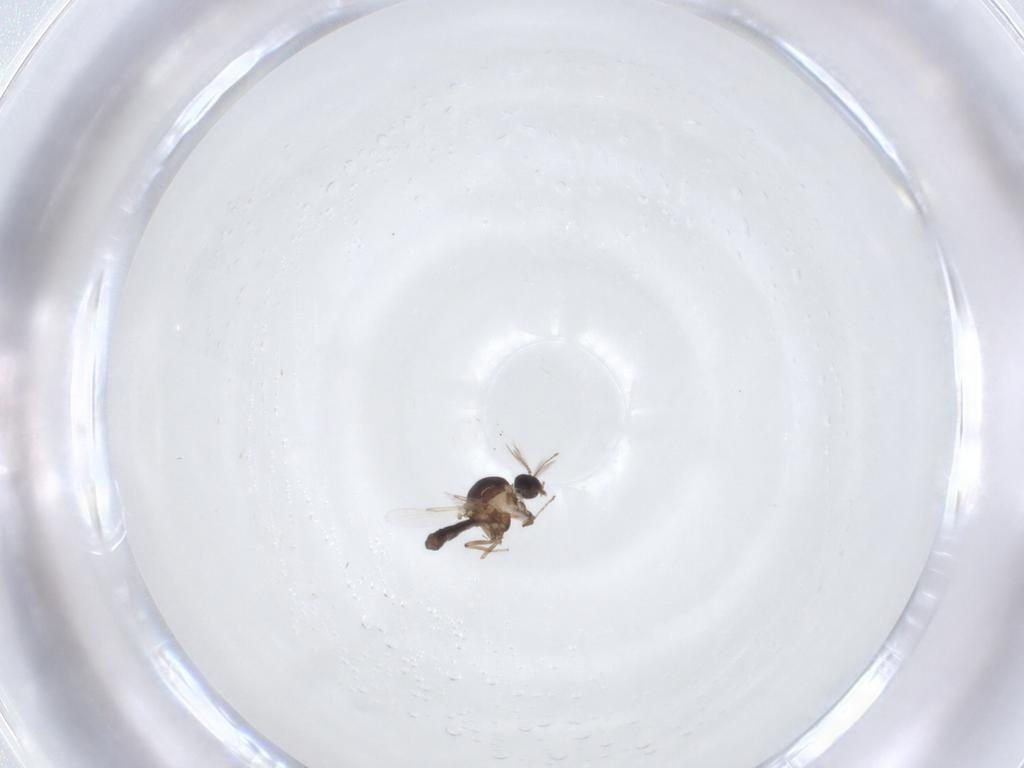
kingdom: Animalia
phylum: Arthropoda
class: Insecta
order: Diptera
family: Ceratopogonidae
